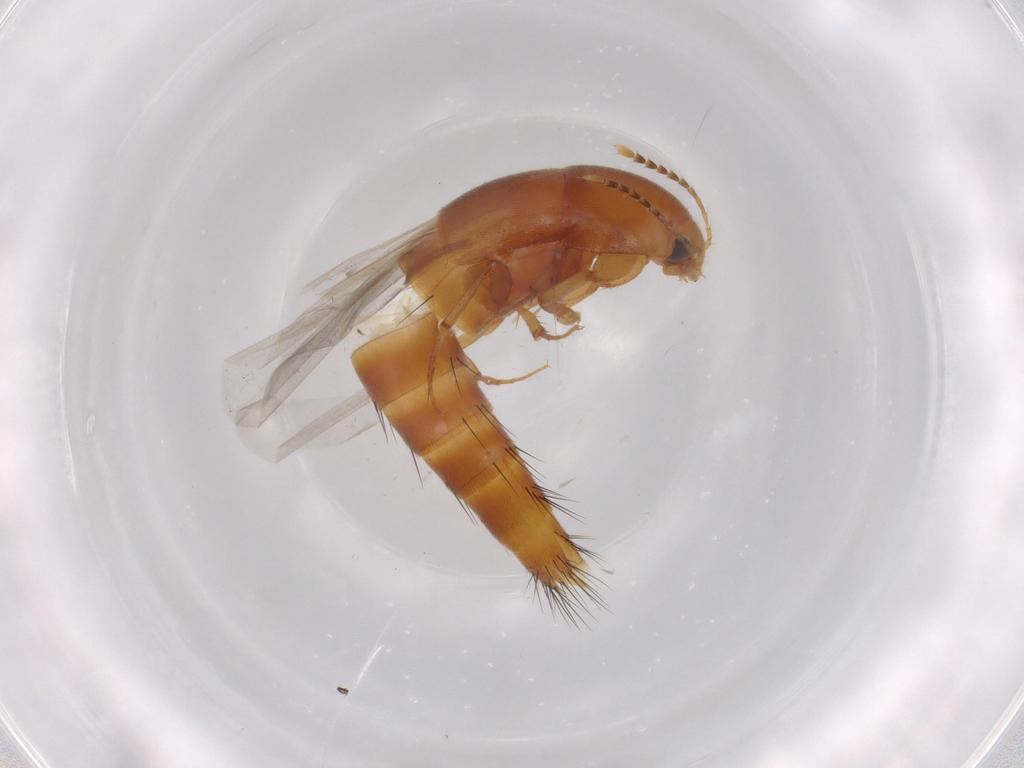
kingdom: Animalia
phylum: Arthropoda
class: Insecta
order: Coleoptera
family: Staphylinidae
